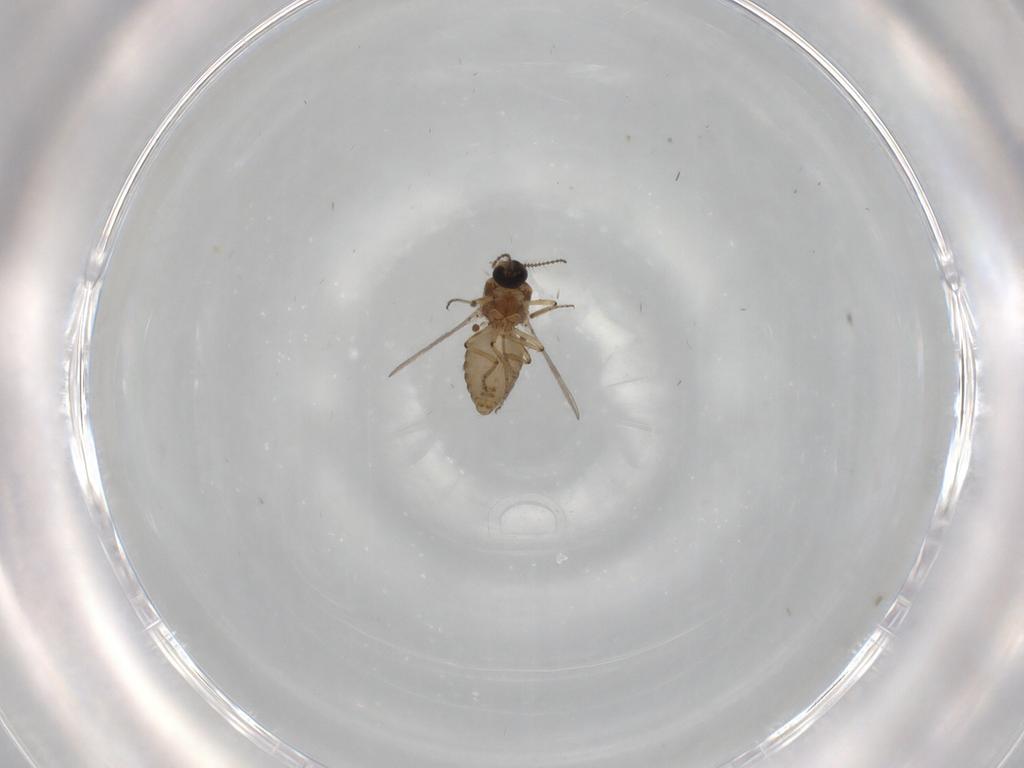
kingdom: Animalia
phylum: Arthropoda
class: Insecta
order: Diptera
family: Ceratopogonidae
